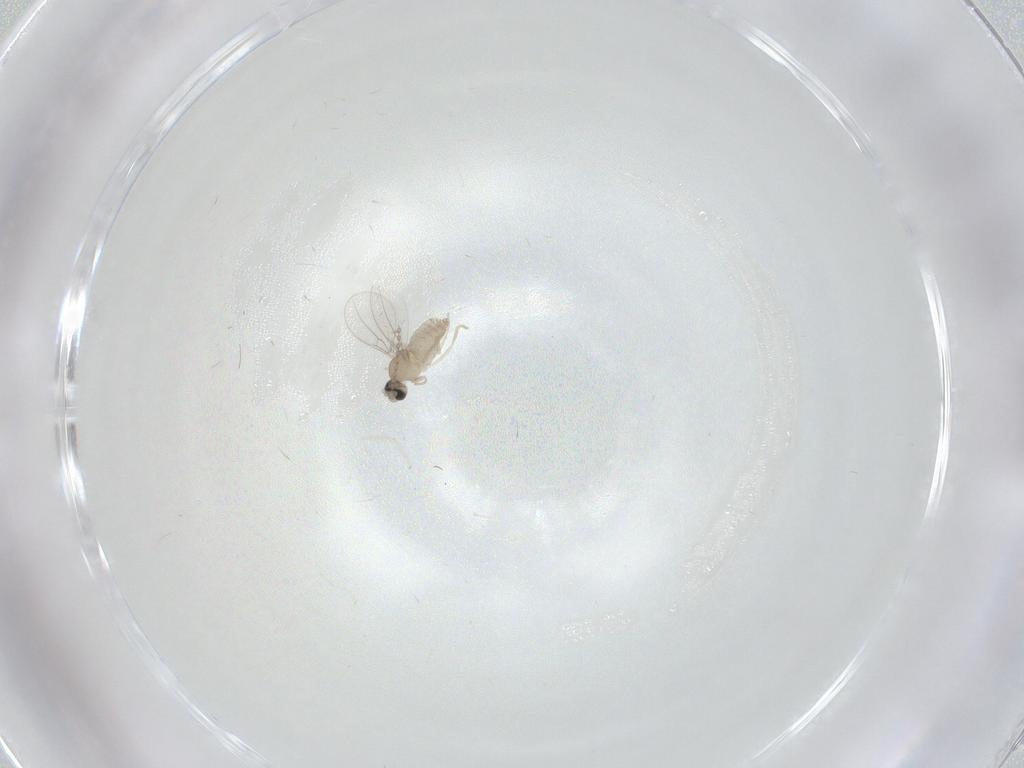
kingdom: Animalia
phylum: Arthropoda
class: Insecta
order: Diptera
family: Cecidomyiidae
